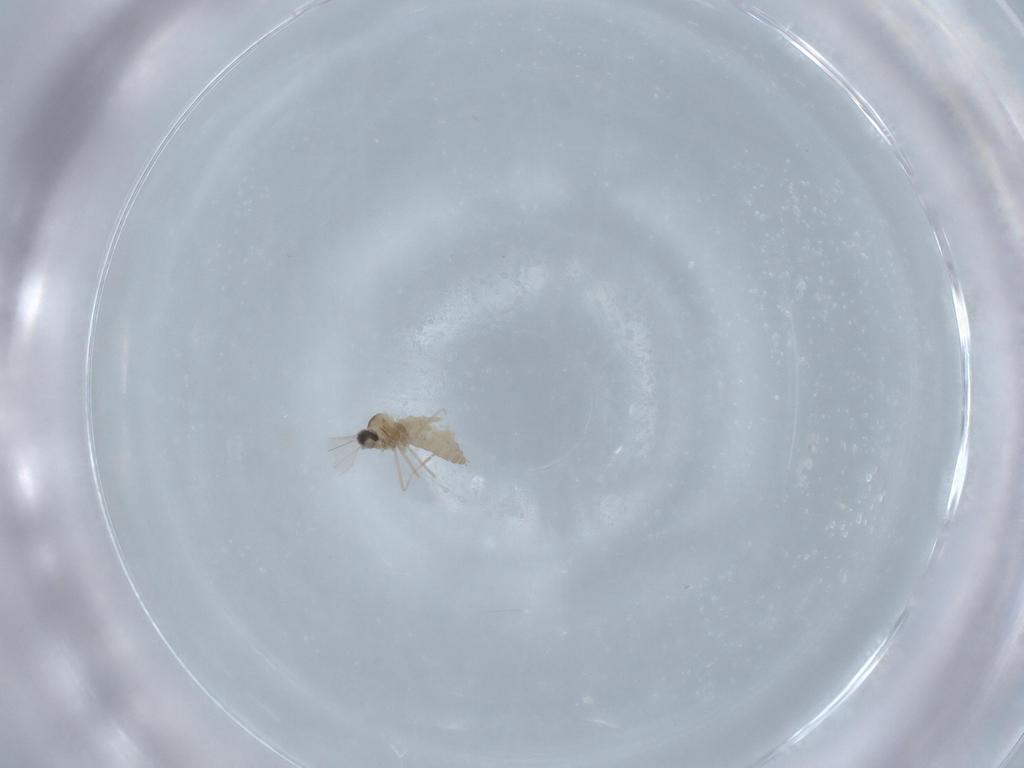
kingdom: Animalia
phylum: Arthropoda
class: Insecta
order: Diptera
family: Cecidomyiidae
